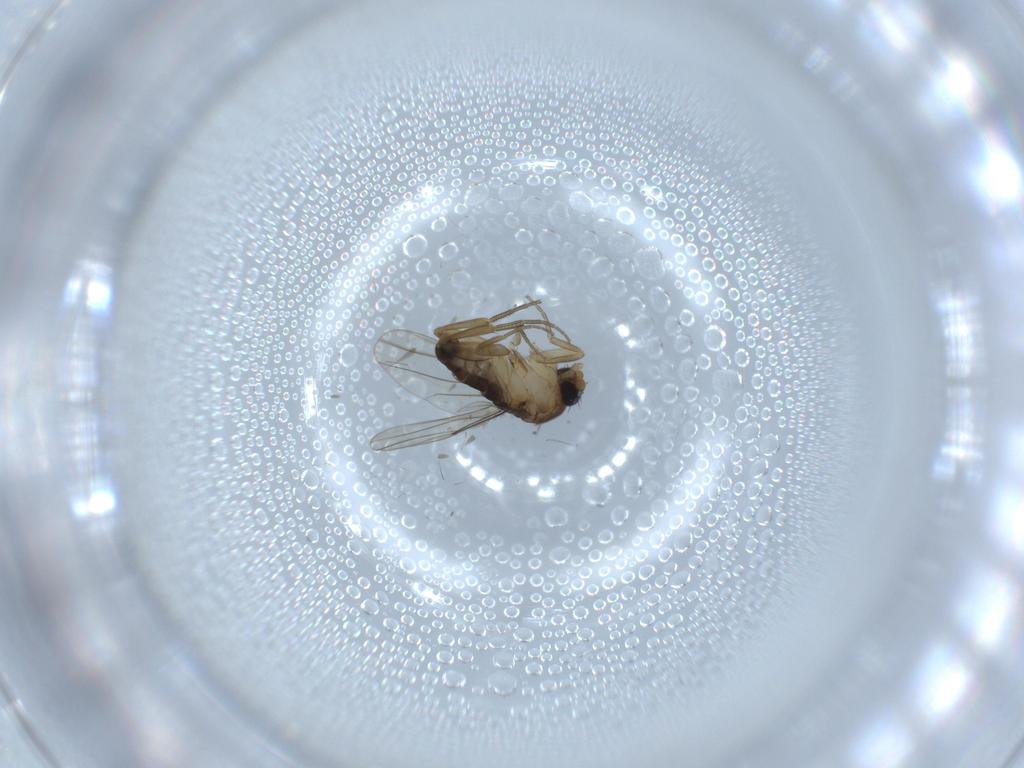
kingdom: Animalia
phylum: Arthropoda
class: Insecta
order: Diptera
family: Phoridae
